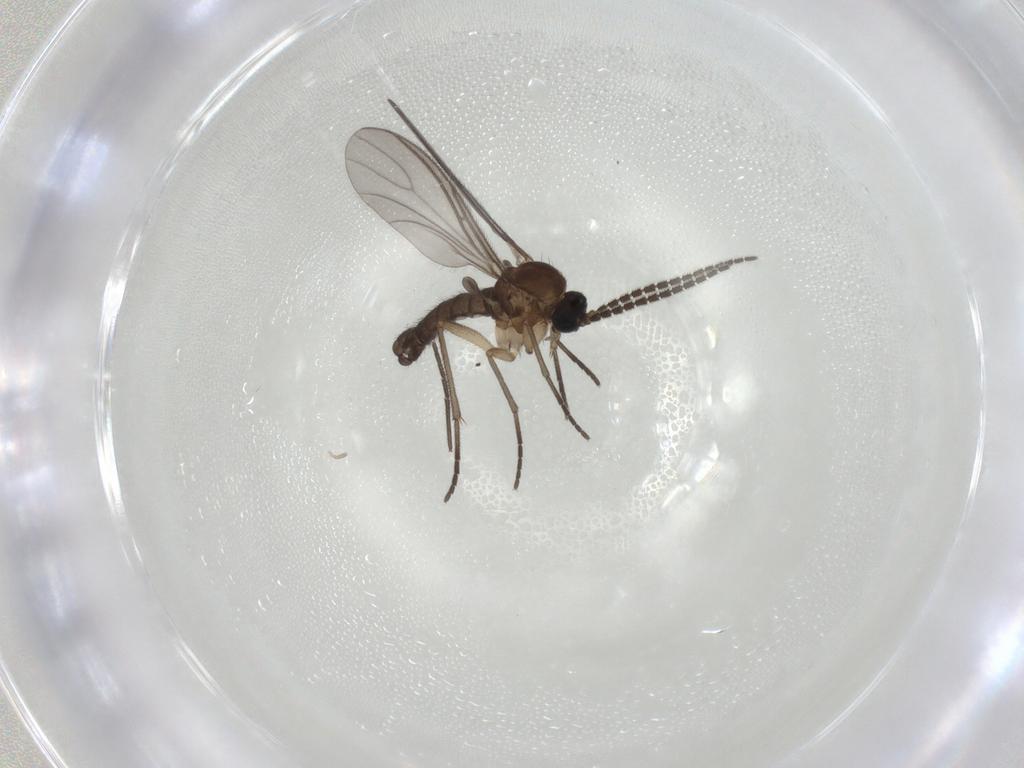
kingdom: Animalia
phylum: Arthropoda
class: Insecta
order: Diptera
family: Sciaridae
